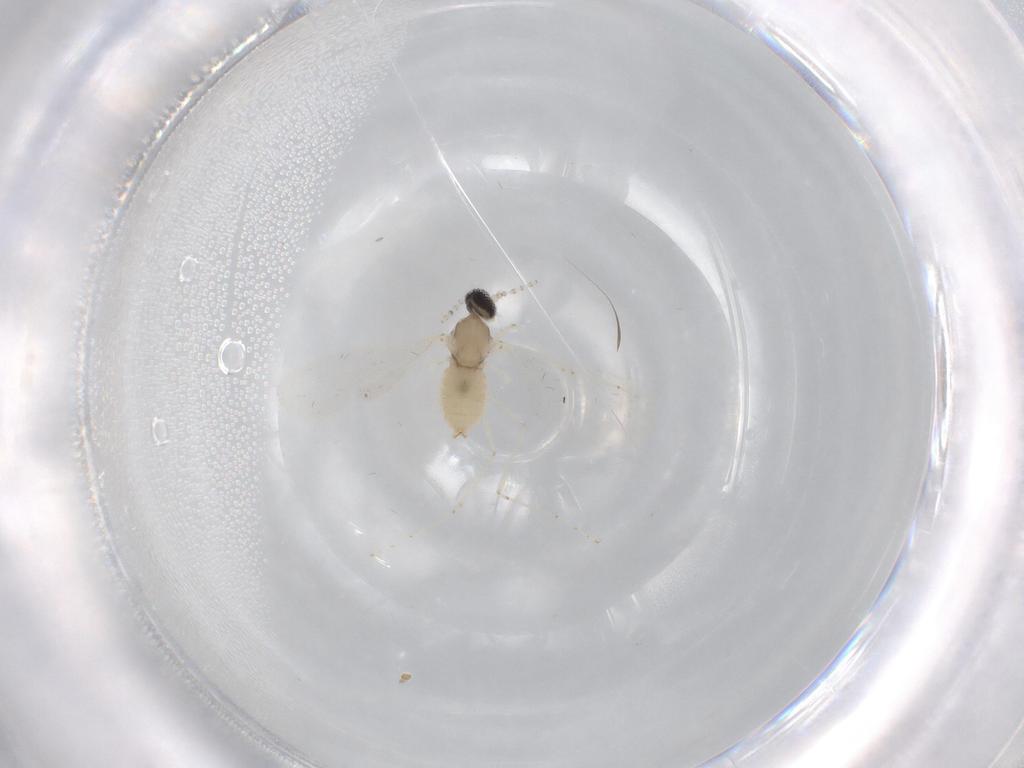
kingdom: Animalia
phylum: Arthropoda
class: Insecta
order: Diptera
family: Cecidomyiidae
